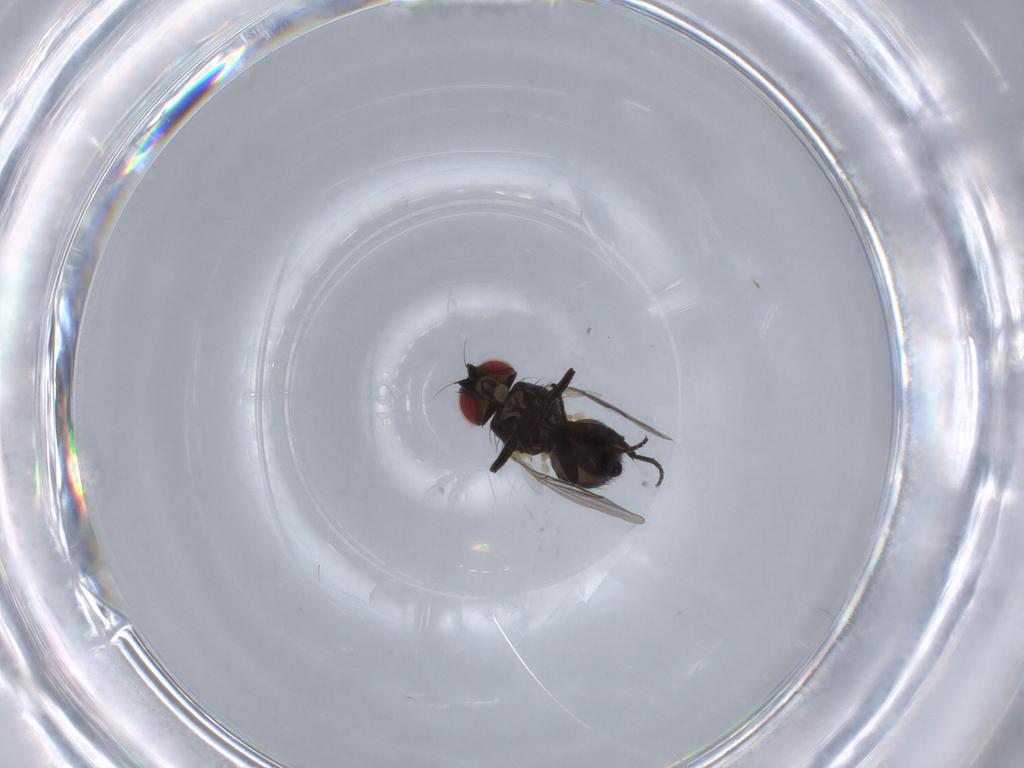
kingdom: Animalia
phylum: Arthropoda
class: Insecta
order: Diptera
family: Agromyzidae
